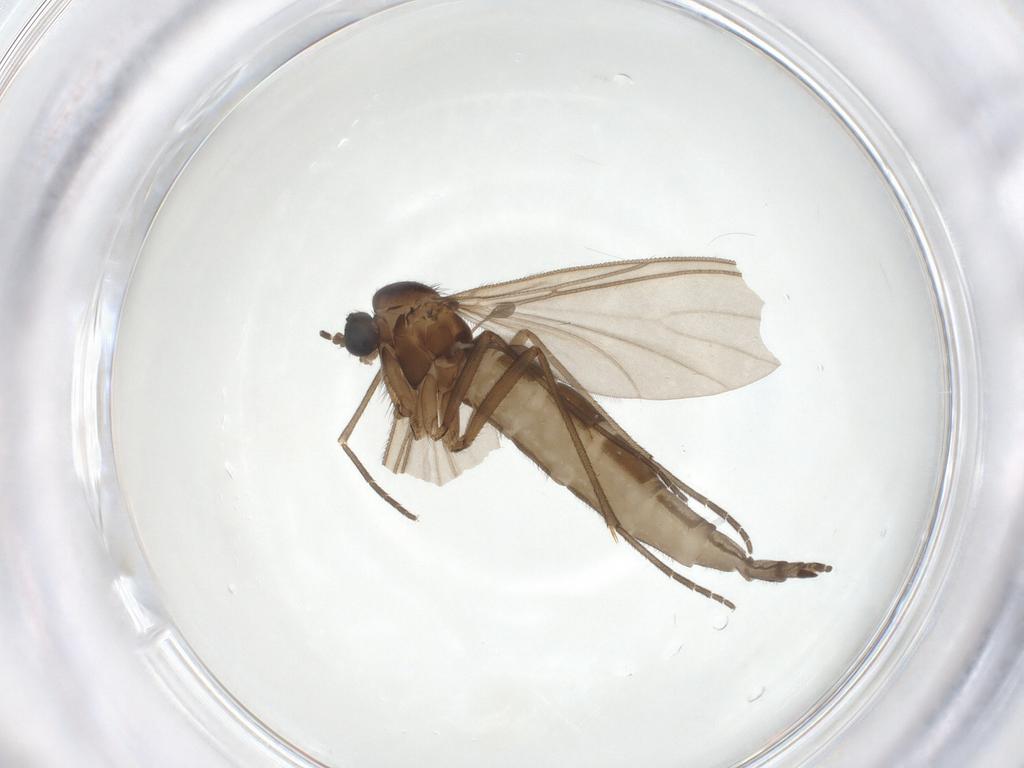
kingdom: Animalia
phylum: Arthropoda
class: Insecta
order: Diptera
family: Sciaridae
